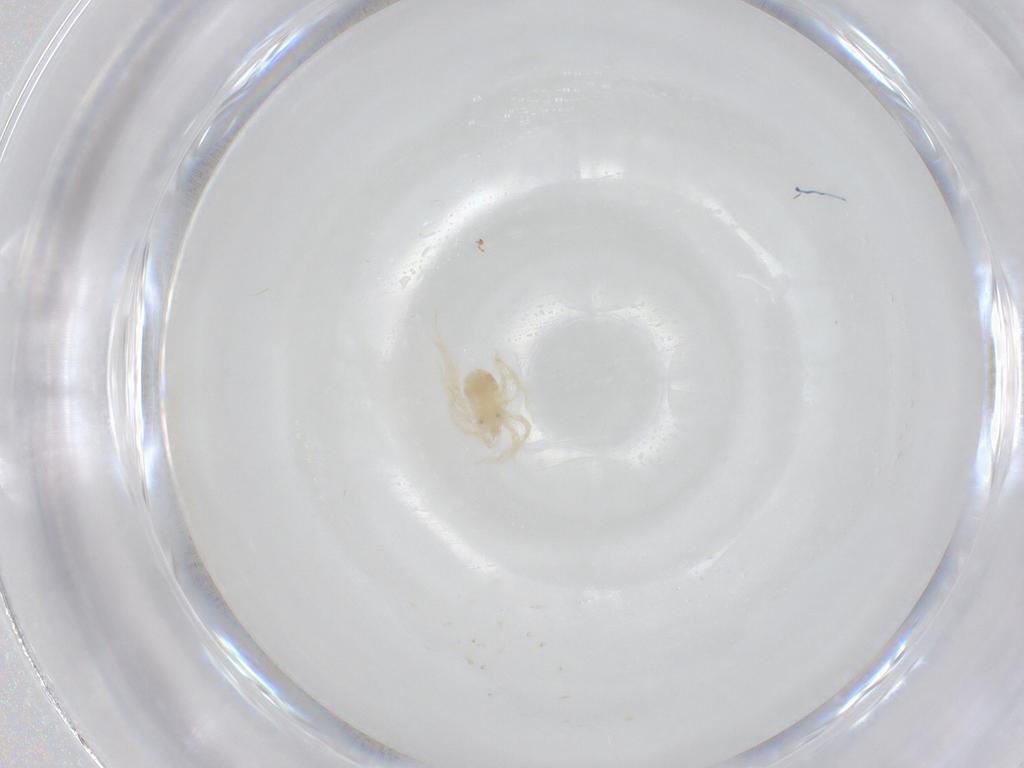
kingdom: Animalia
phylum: Arthropoda
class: Arachnida
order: Trombidiformes
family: Anystidae
